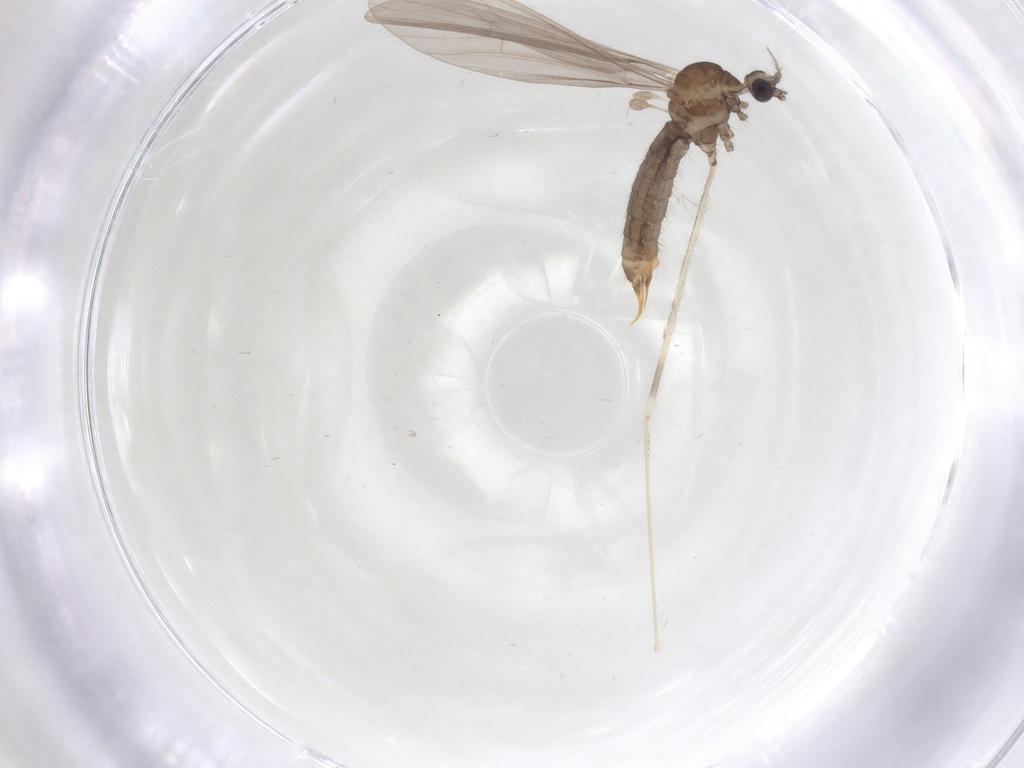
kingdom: Animalia
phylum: Arthropoda
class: Insecta
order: Diptera
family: Limoniidae
